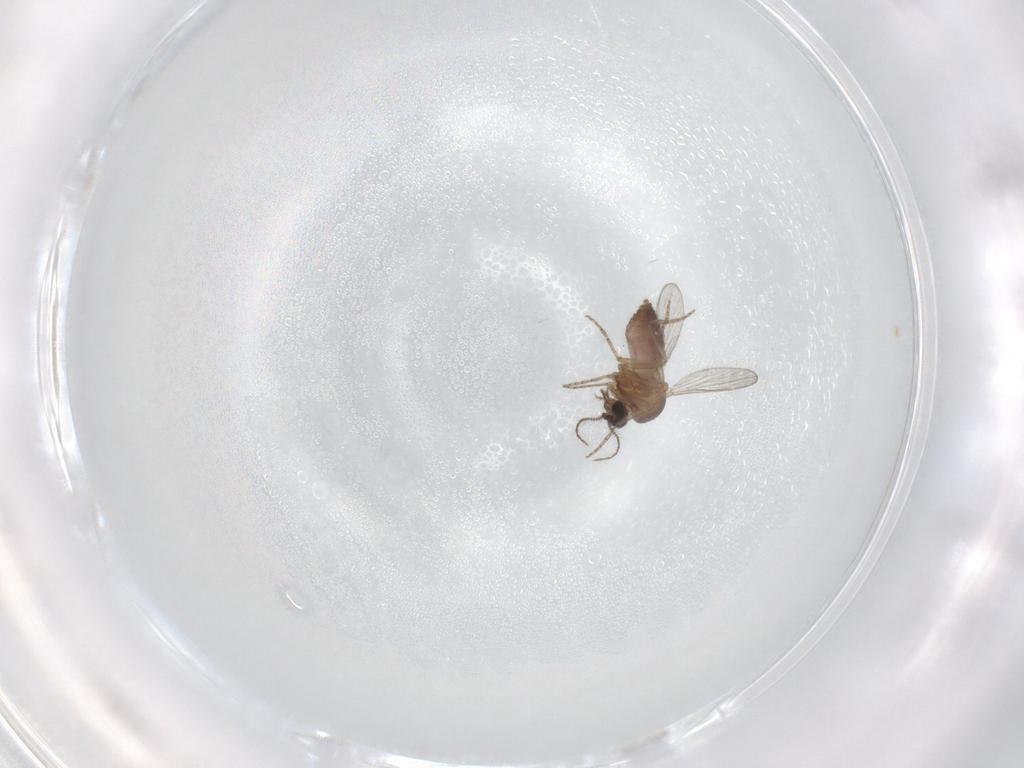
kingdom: Animalia
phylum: Arthropoda
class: Insecta
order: Diptera
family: Ceratopogonidae
